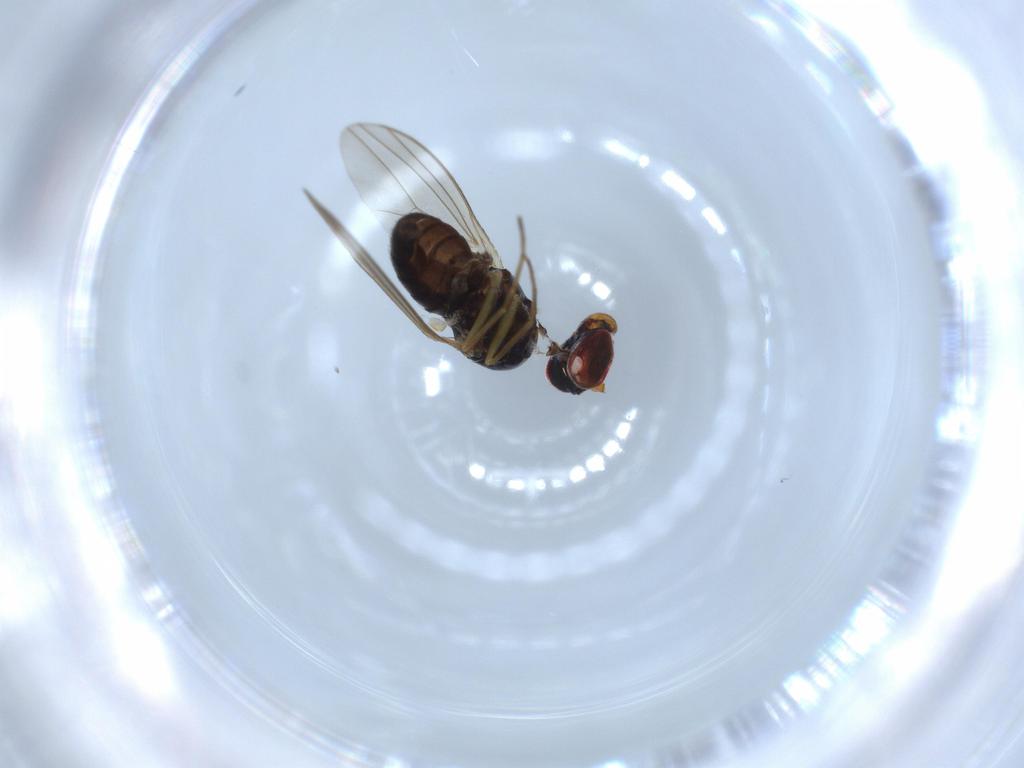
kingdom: Animalia
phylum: Arthropoda
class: Insecta
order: Diptera
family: Dolichopodidae
